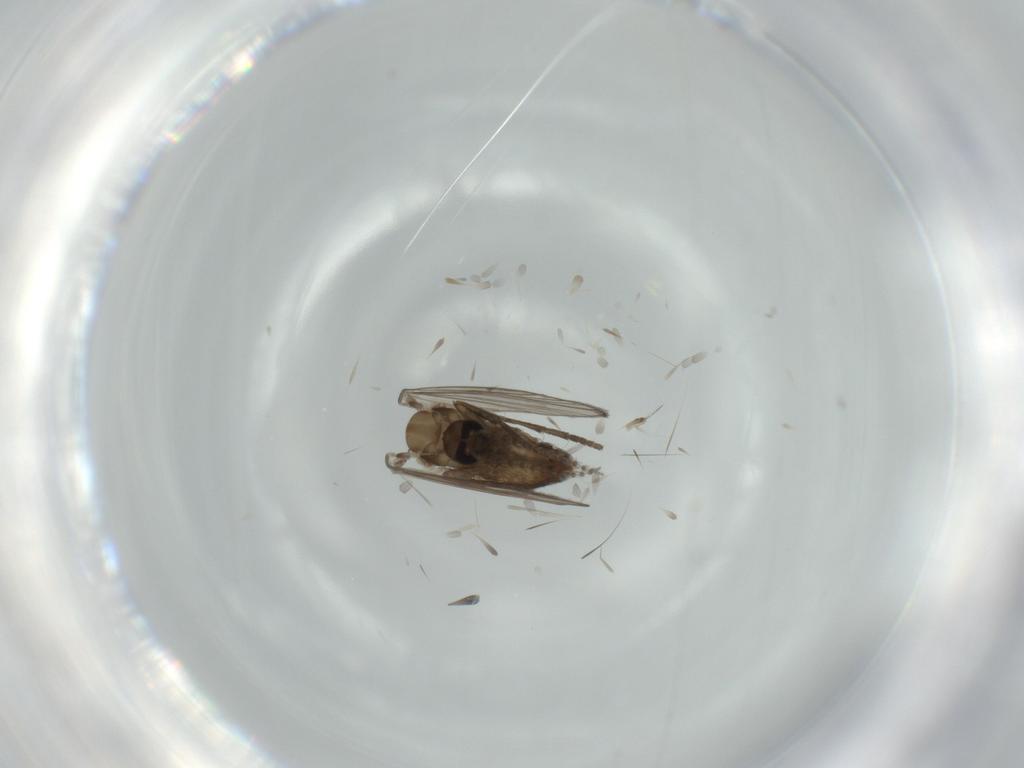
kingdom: Animalia
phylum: Arthropoda
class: Insecta
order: Diptera
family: Psychodidae
